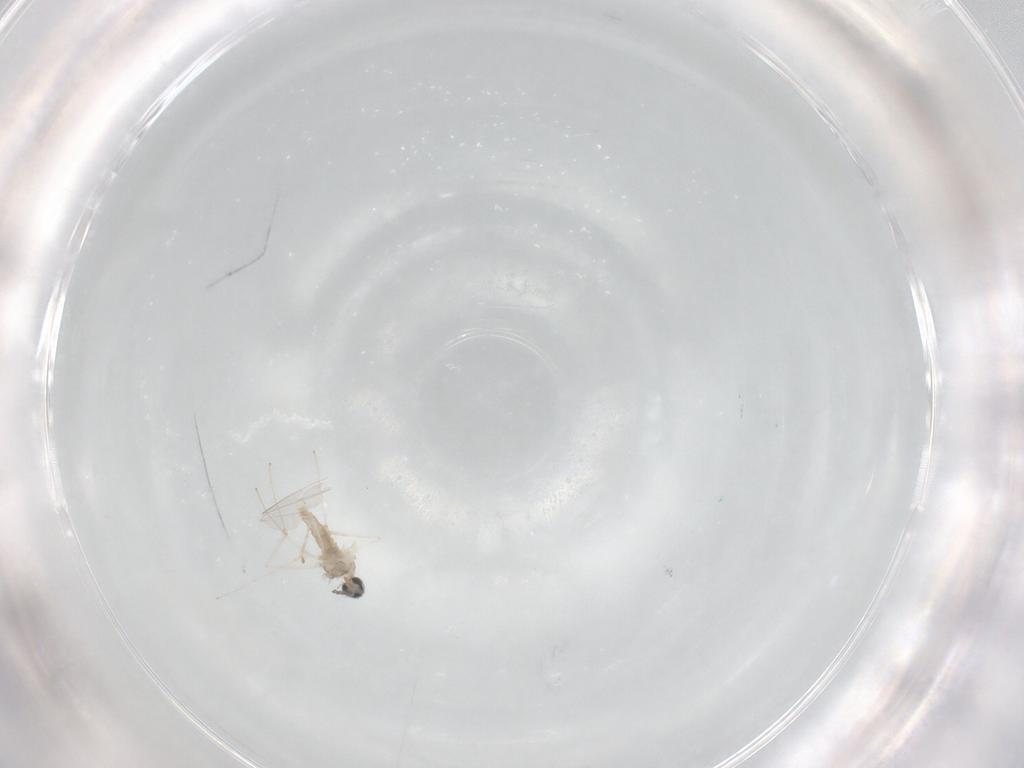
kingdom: Animalia
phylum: Arthropoda
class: Insecta
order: Diptera
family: Cecidomyiidae
